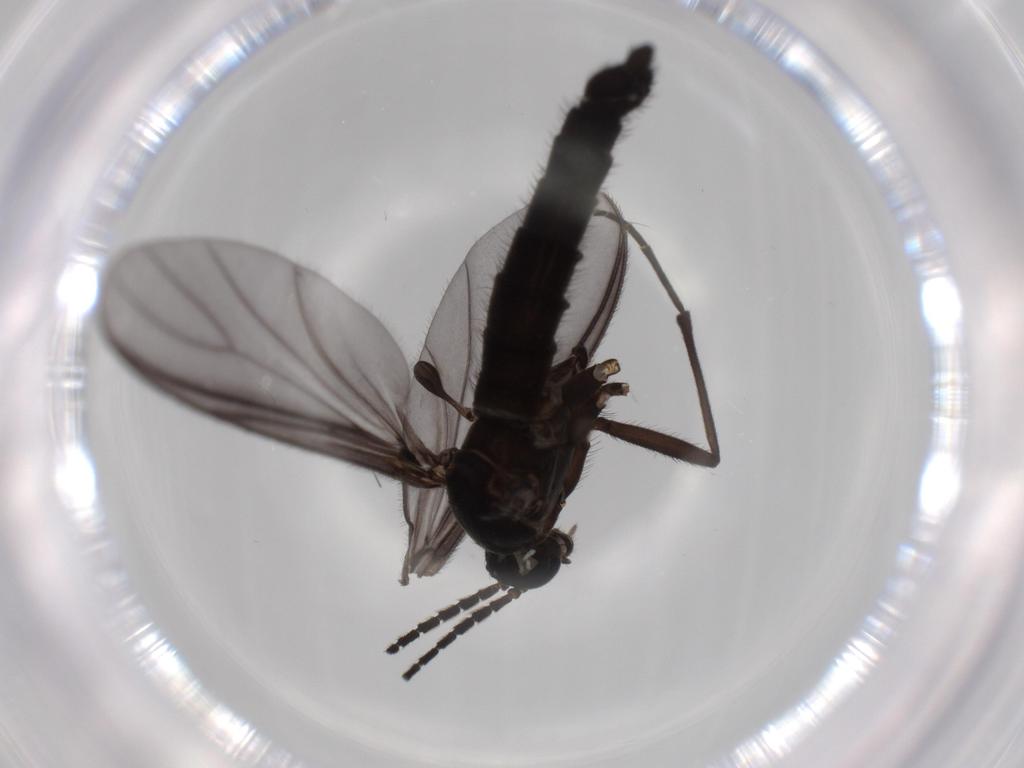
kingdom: Animalia
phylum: Arthropoda
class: Insecta
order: Diptera
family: Sciaridae
